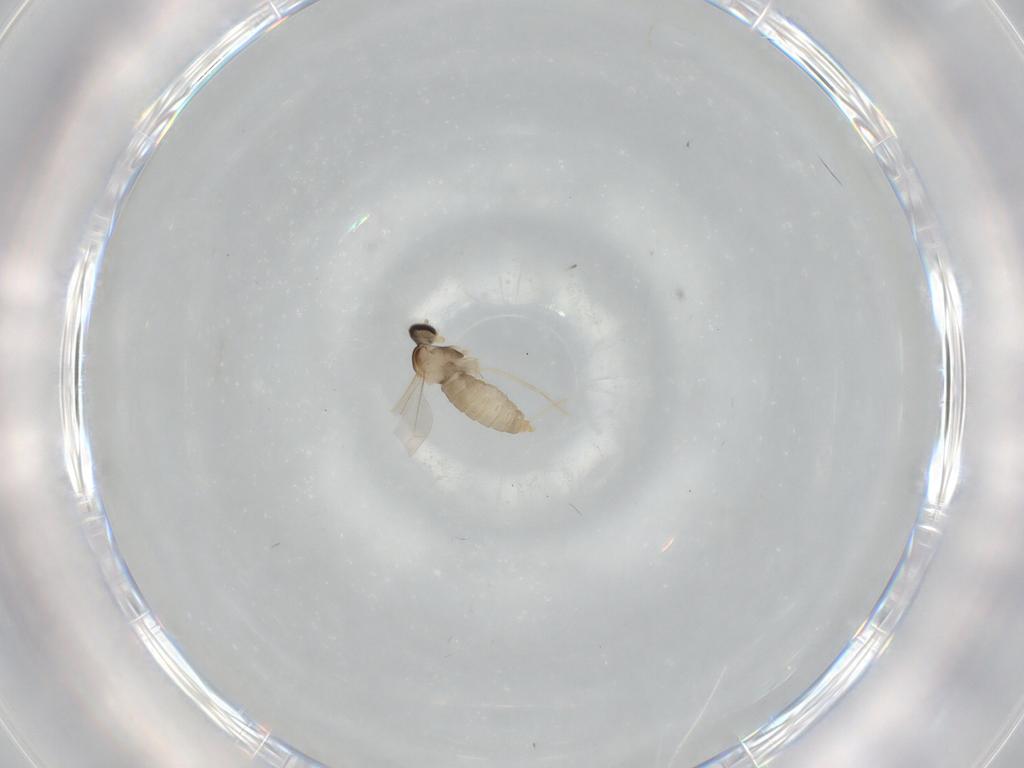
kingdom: Animalia
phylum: Arthropoda
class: Insecta
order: Diptera
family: Cecidomyiidae
